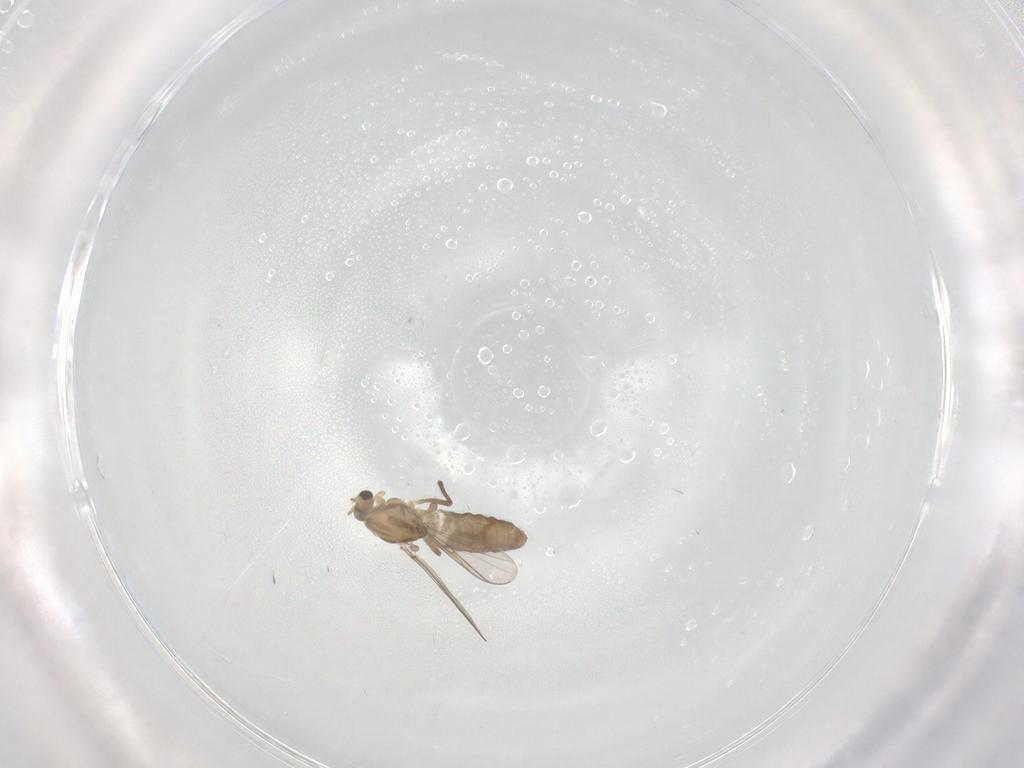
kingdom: Animalia
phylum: Arthropoda
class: Insecta
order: Diptera
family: Chironomidae
